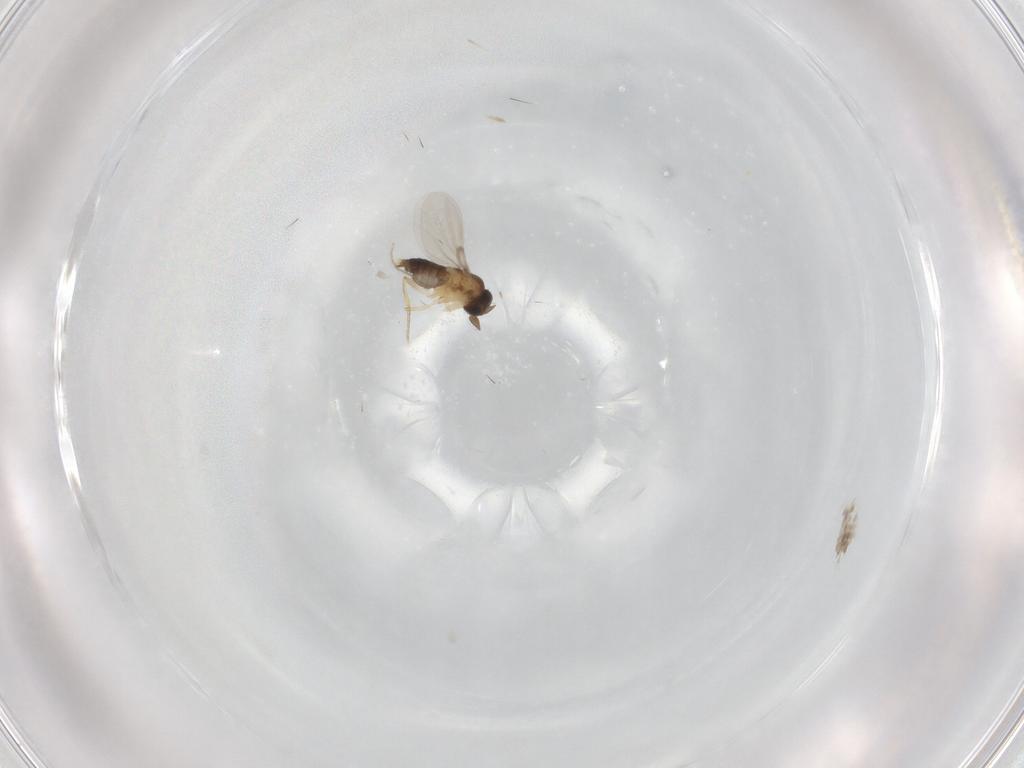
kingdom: Animalia
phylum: Arthropoda
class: Insecta
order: Diptera
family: Phoridae
